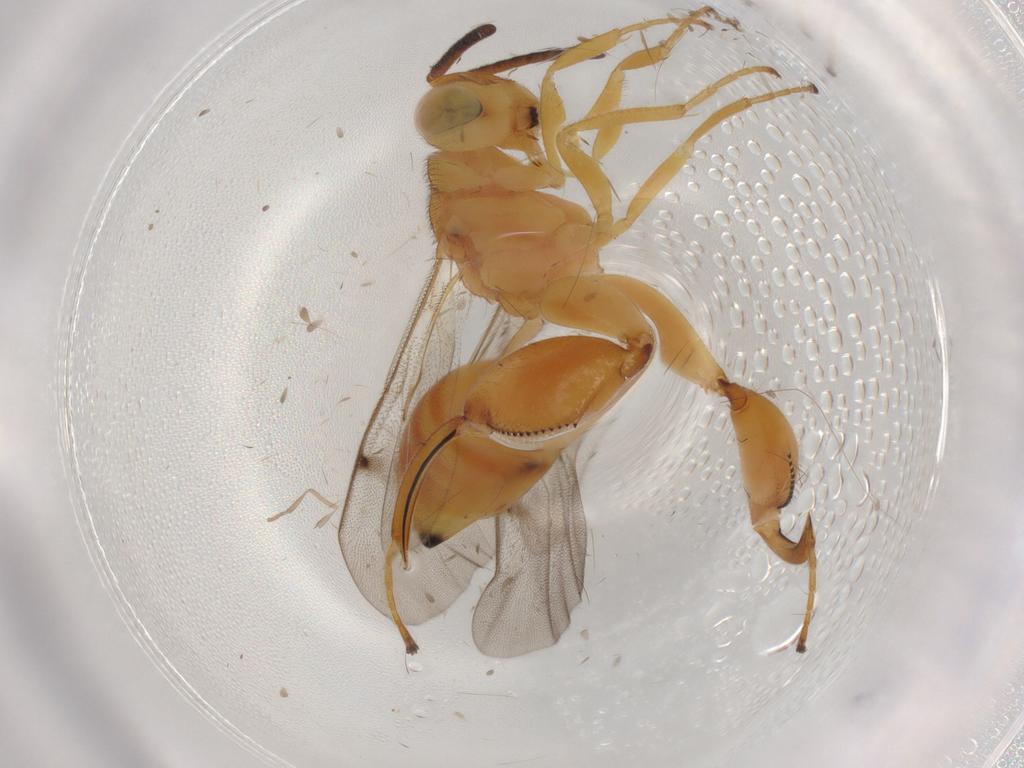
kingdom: Animalia
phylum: Arthropoda
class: Insecta
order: Hymenoptera
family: Chalcididae
